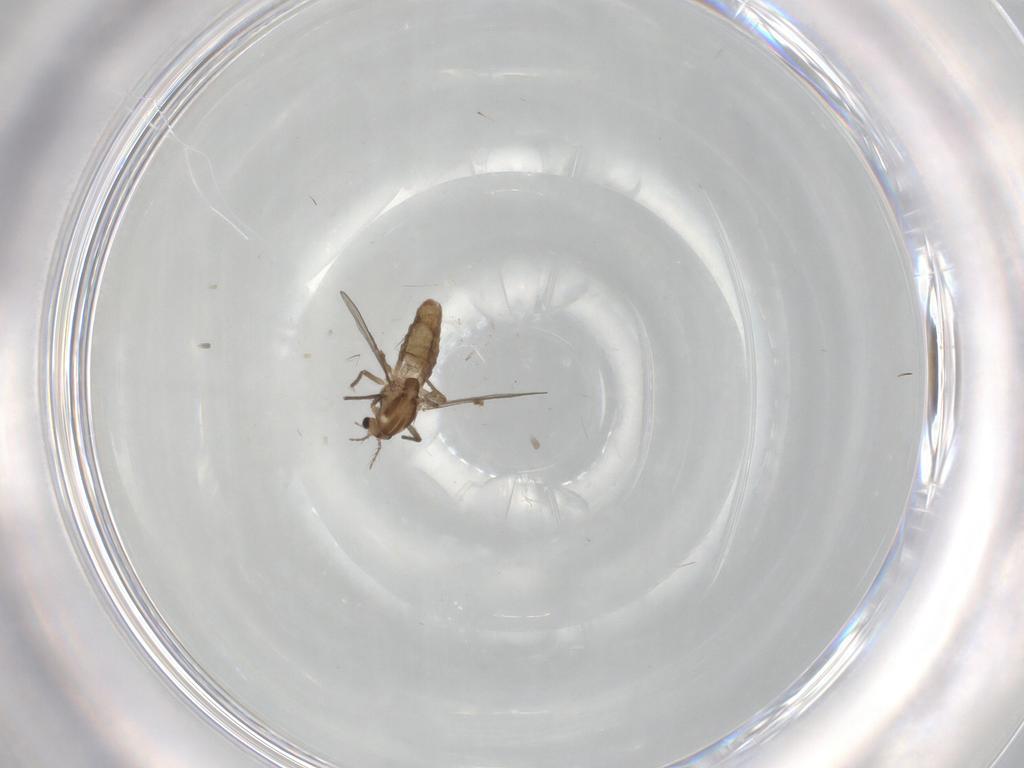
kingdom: Animalia
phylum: Arthropoda
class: Insecta
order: Diptera
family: Chironomidae
